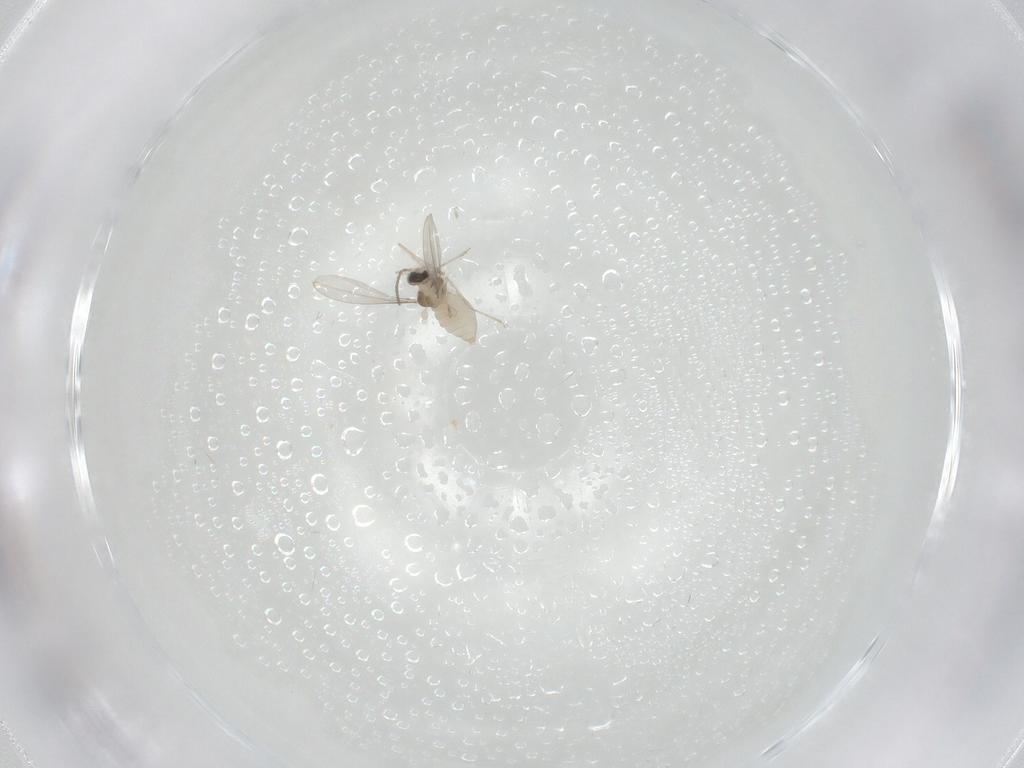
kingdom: Animalia
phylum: Arthropoda
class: Insecta
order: Diptera
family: Cecidomyiidae
